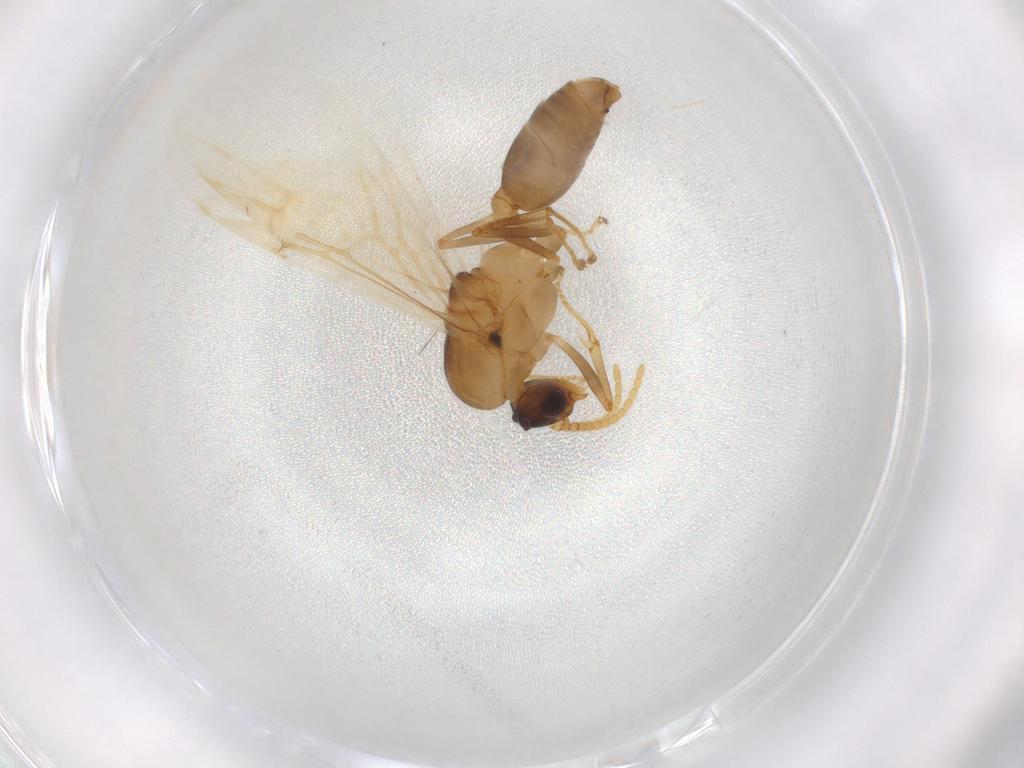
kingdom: Animalia
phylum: Arthropoda
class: Insecta
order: Hymenoptera
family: Formicidae
